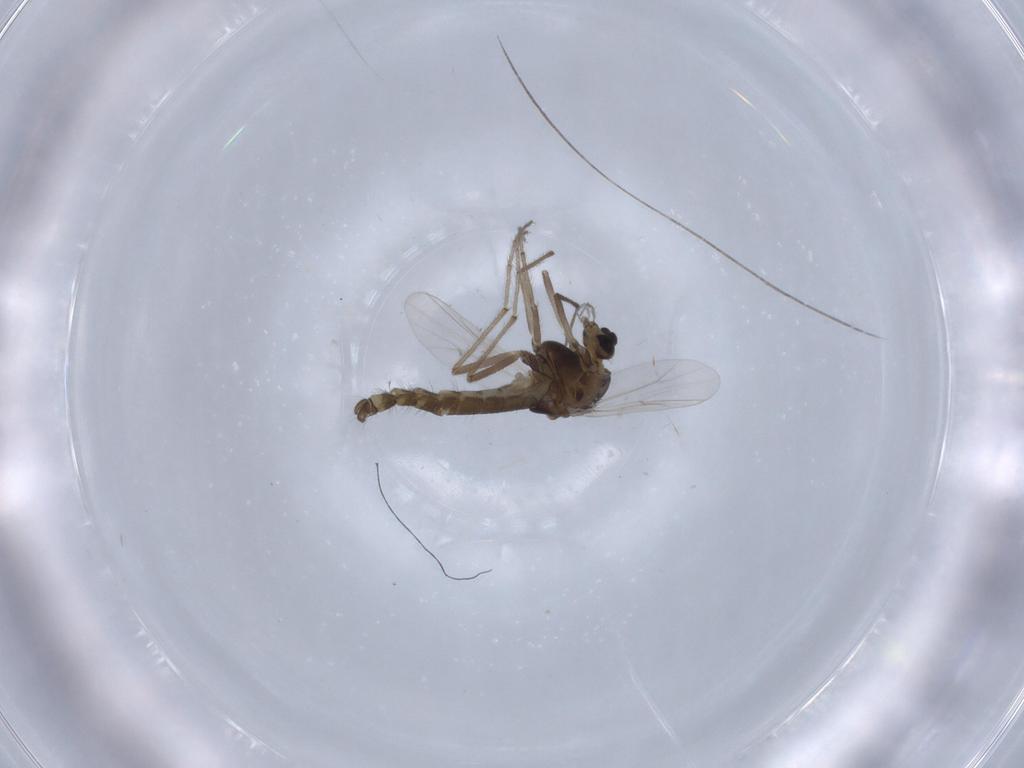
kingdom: Animalia
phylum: Arthropoda
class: Insecta
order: Diptera
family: Chironomidae
